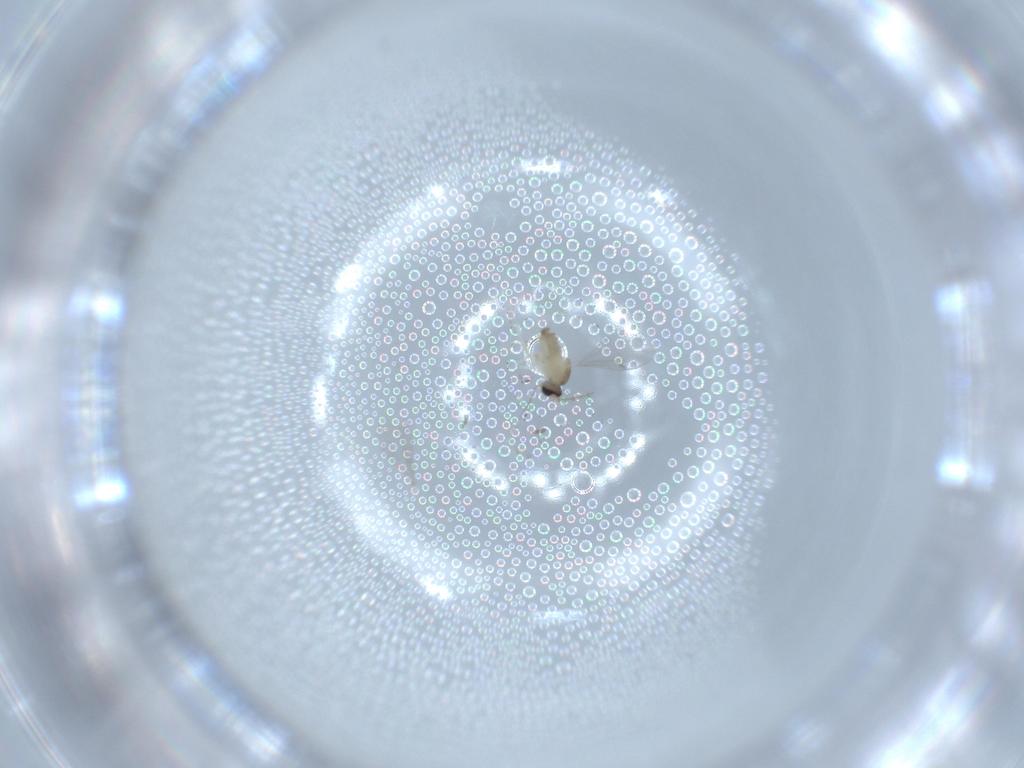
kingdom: Animalia
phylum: Arthropoda
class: Insecta
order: Diptera
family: Cecidomyiidae
